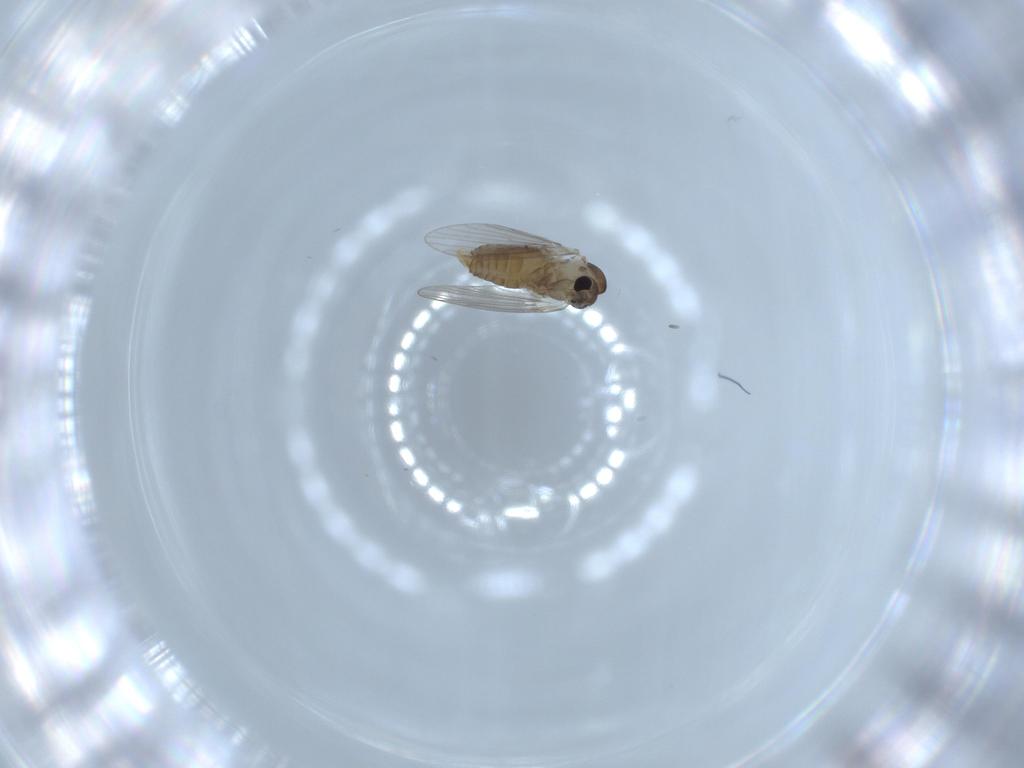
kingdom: Animalia
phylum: Arthropoda
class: Insecta
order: Diptera
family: Psychodidae
